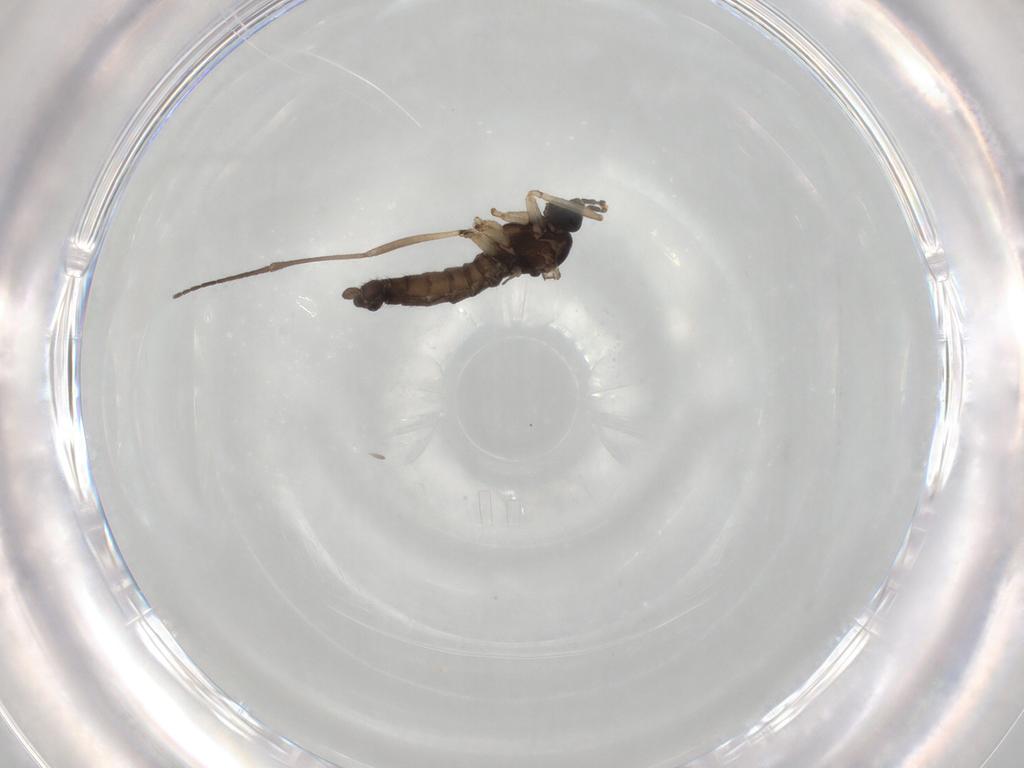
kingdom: Animalia
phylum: Arthropoda
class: Insecta
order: Diptera
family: Sciaridae
